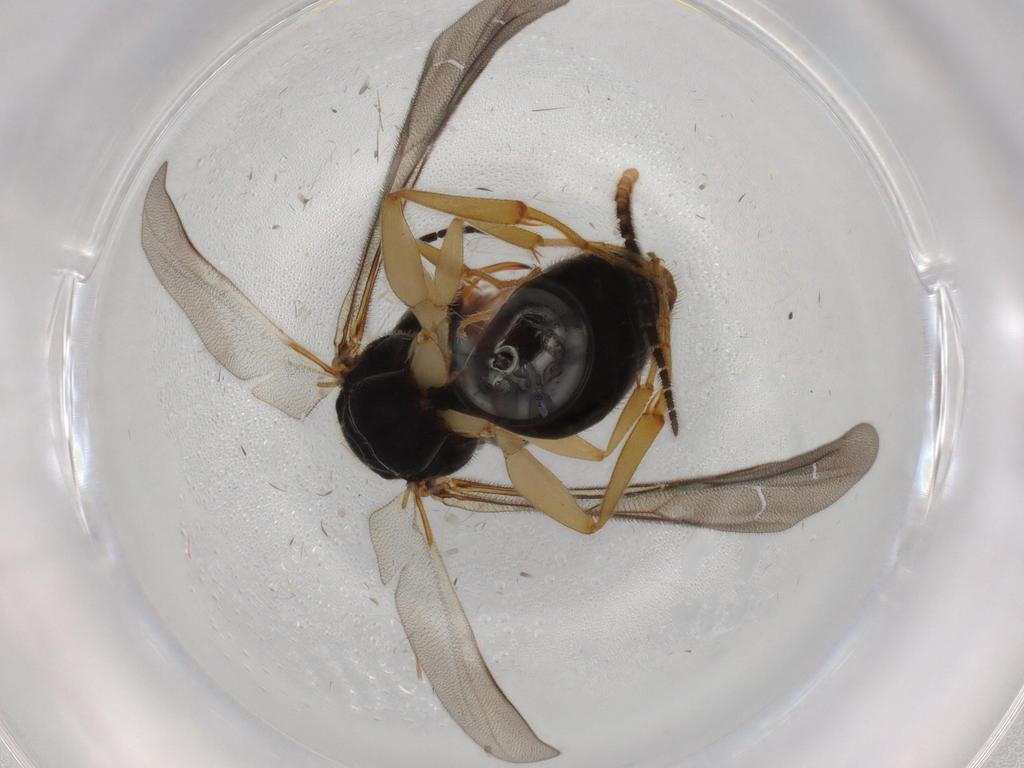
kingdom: Animalia
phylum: Arthropoda
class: Insecta
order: Hymenoptera
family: Bethylidae
